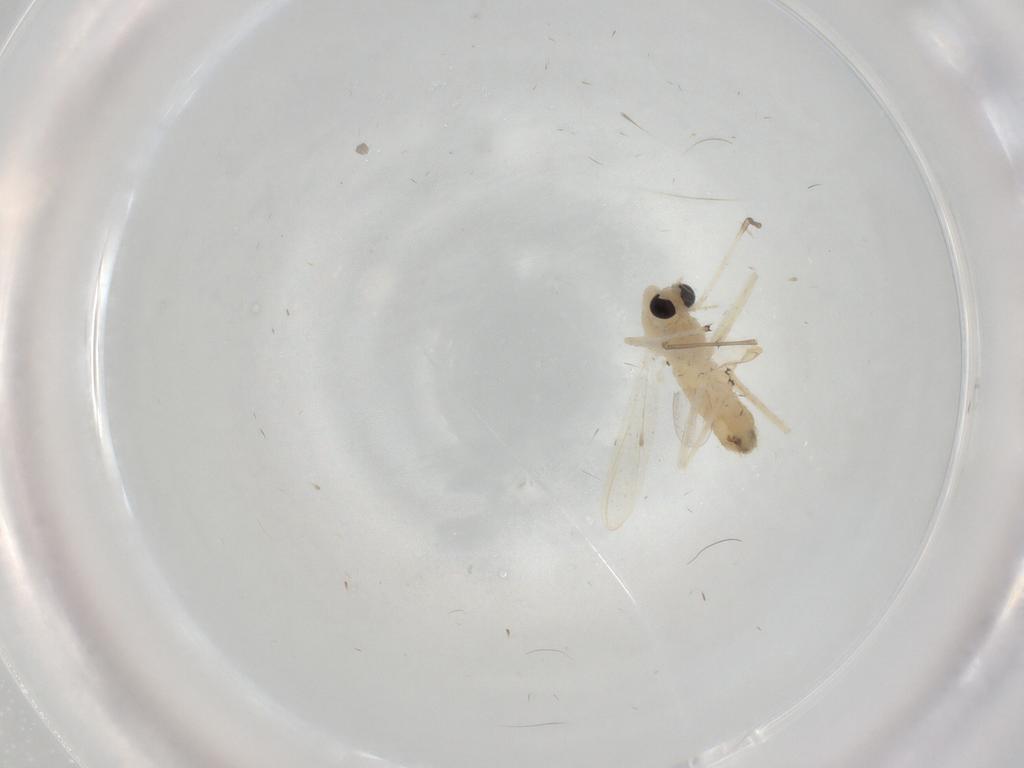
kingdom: Animalia
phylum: Arthropoda
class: Insecta
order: Diptera
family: Chironomidae
